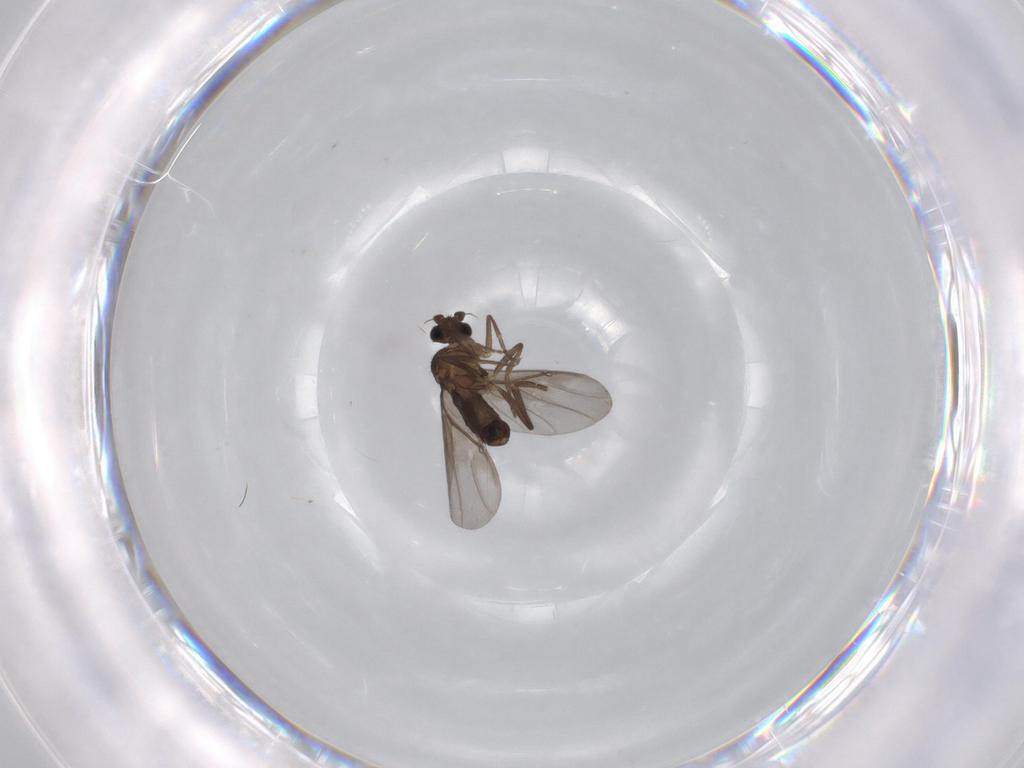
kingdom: Animalia
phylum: Arthropoda
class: Insecta
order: Diptera
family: Phoridae
